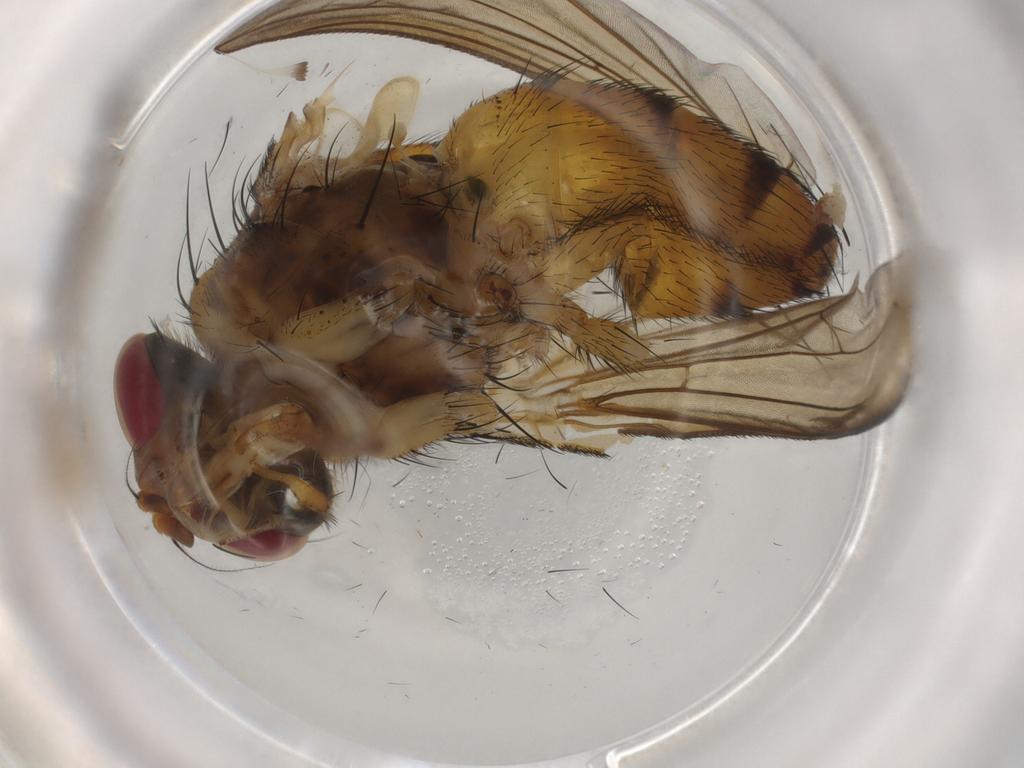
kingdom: Animalia
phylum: Arthropoda
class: Insecta
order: Diptera
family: Tachinidae
